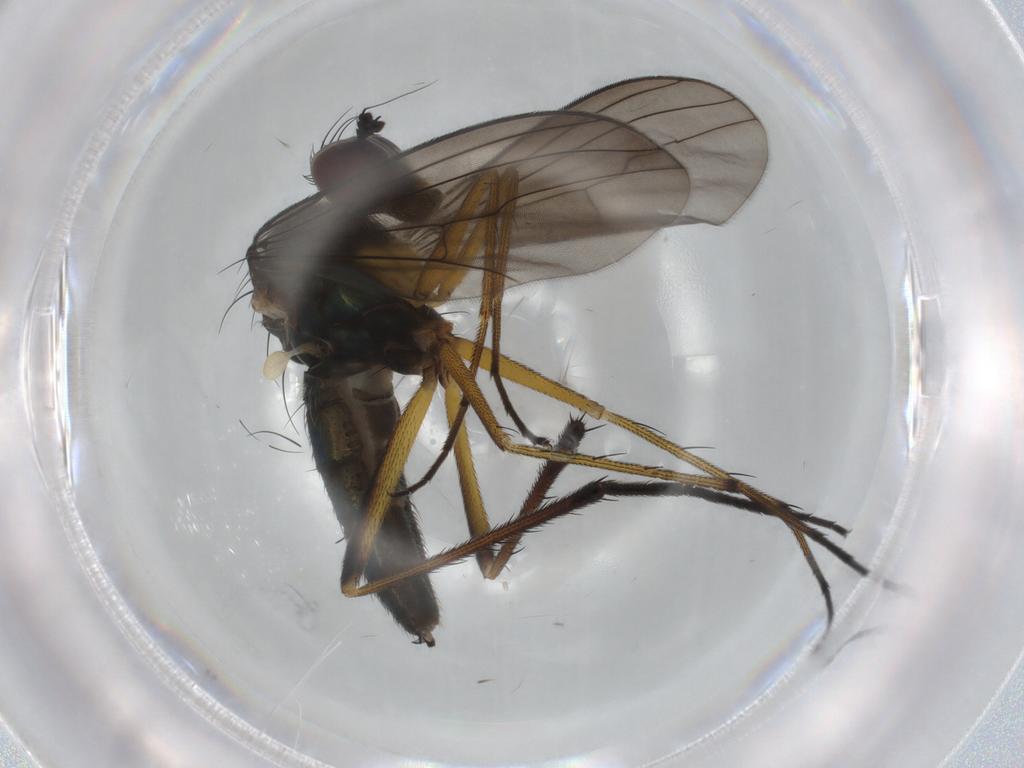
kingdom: Animalia
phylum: Arthropoda
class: Insecta
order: Diptera
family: Dolichopodidae
